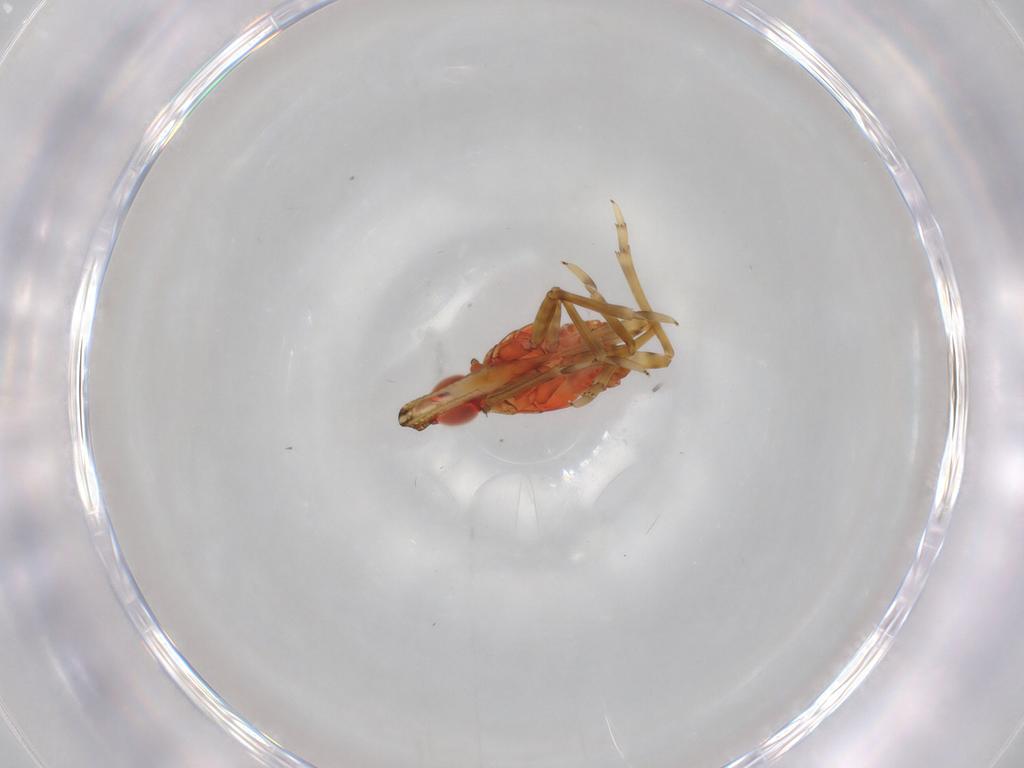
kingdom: Animalia
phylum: Arthropoda
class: Insecta
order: Hemiptera
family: Fulgoroidea_incertae_sedis
